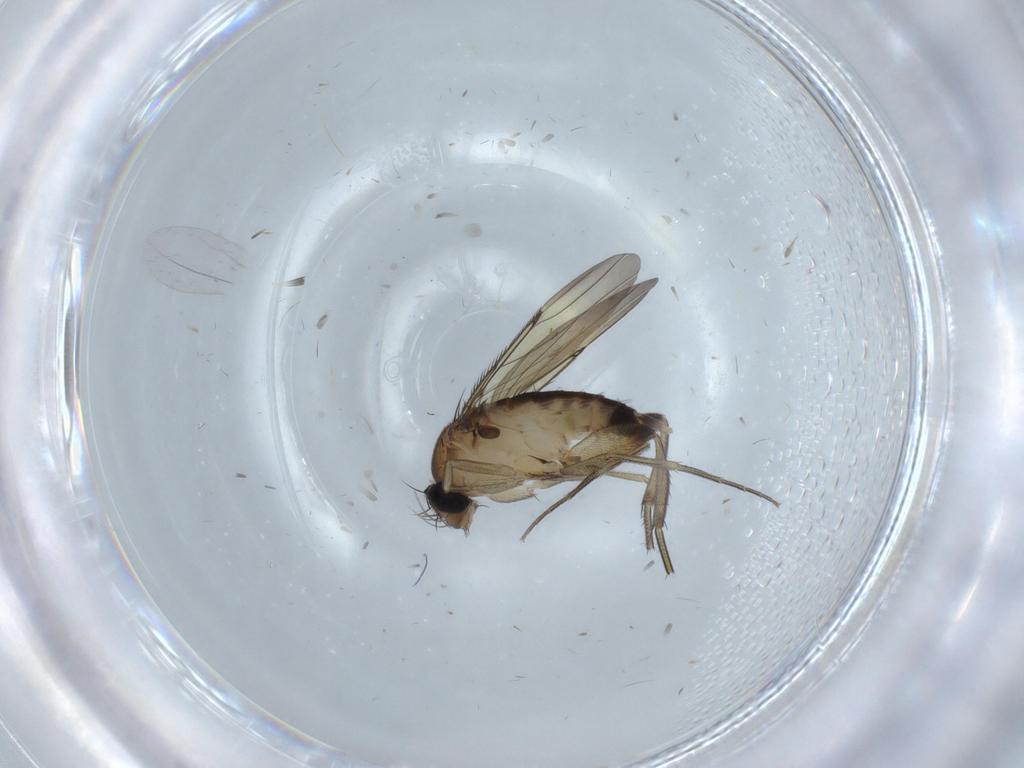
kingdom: Animalia
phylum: Arthropoda
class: Insecta
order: Diptera
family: Phoridae
